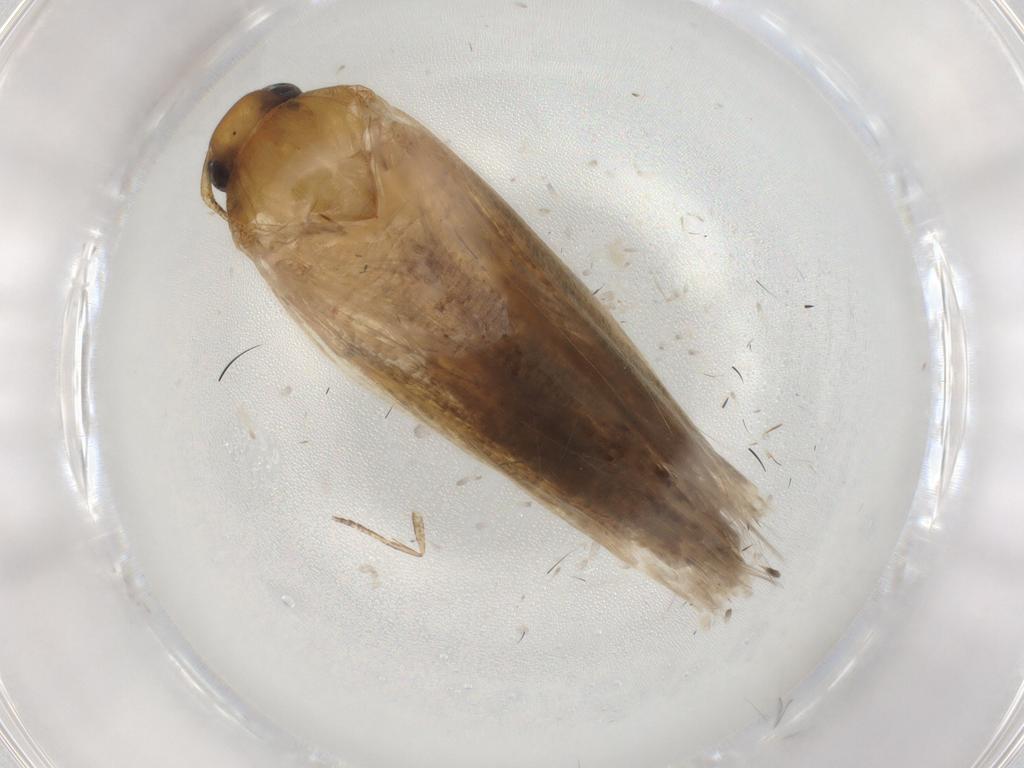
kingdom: Animalia
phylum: Arthropoda
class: Insecta
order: Lepidoptera
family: Gelechiidae
